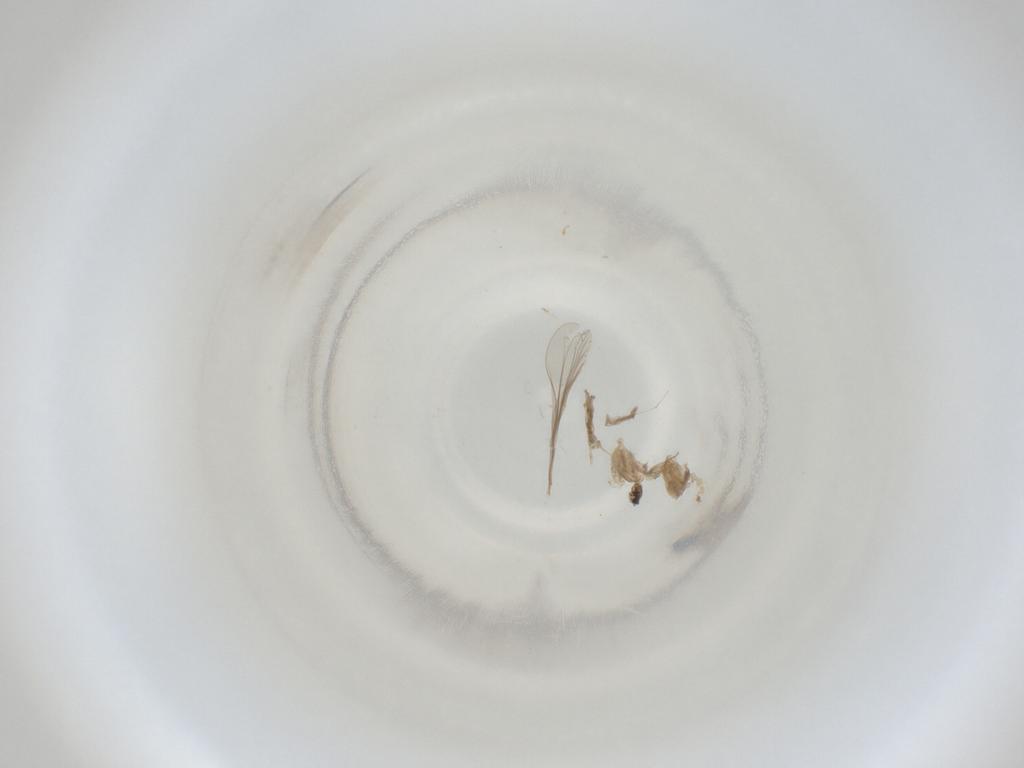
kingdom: Animalia
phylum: Arthropoda
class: Insecta
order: Diptera
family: Cecidomyiidae
